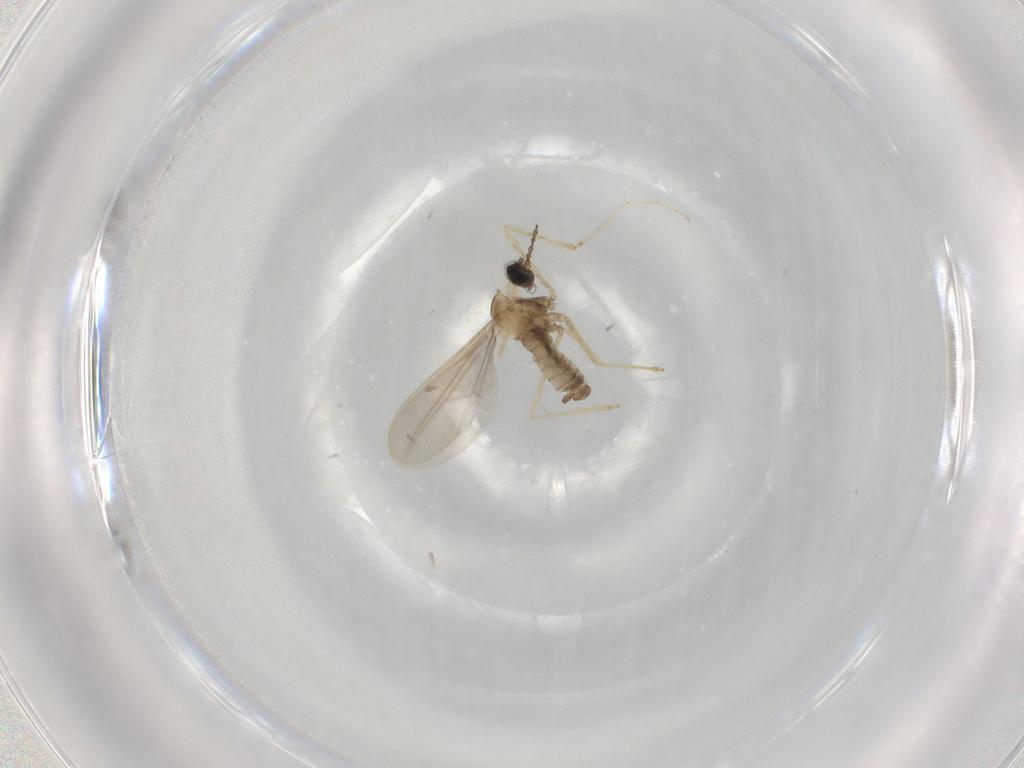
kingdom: Animalia
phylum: Arthropoda
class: Insecta
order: Diptera
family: Cecidomyiidae
